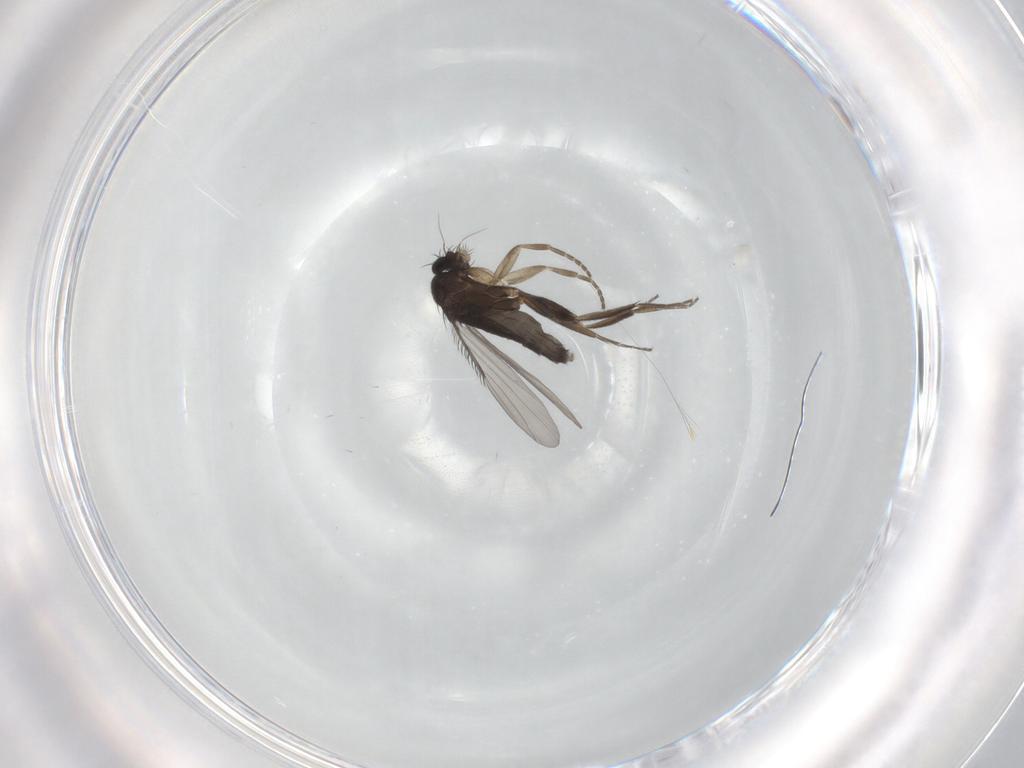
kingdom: Animalia
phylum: Arthropoda
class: Insecta
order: Diptera
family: Phoridae
